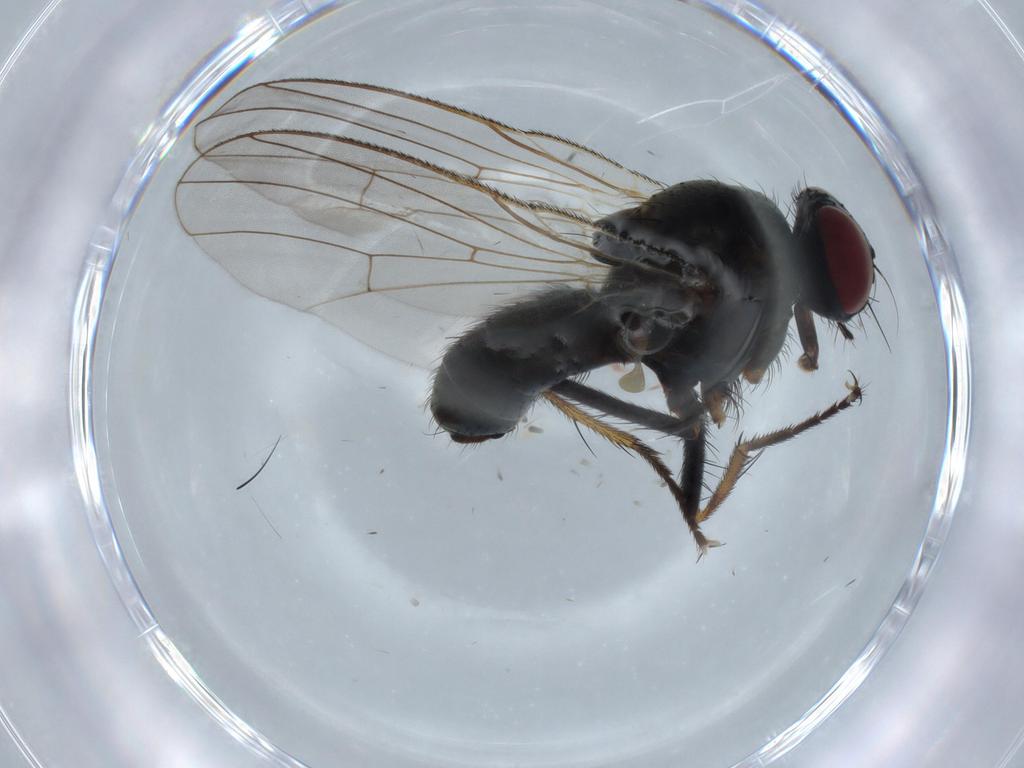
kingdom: Animalia
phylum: Arthropoda
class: Insecta
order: Diptera
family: Muscidae
